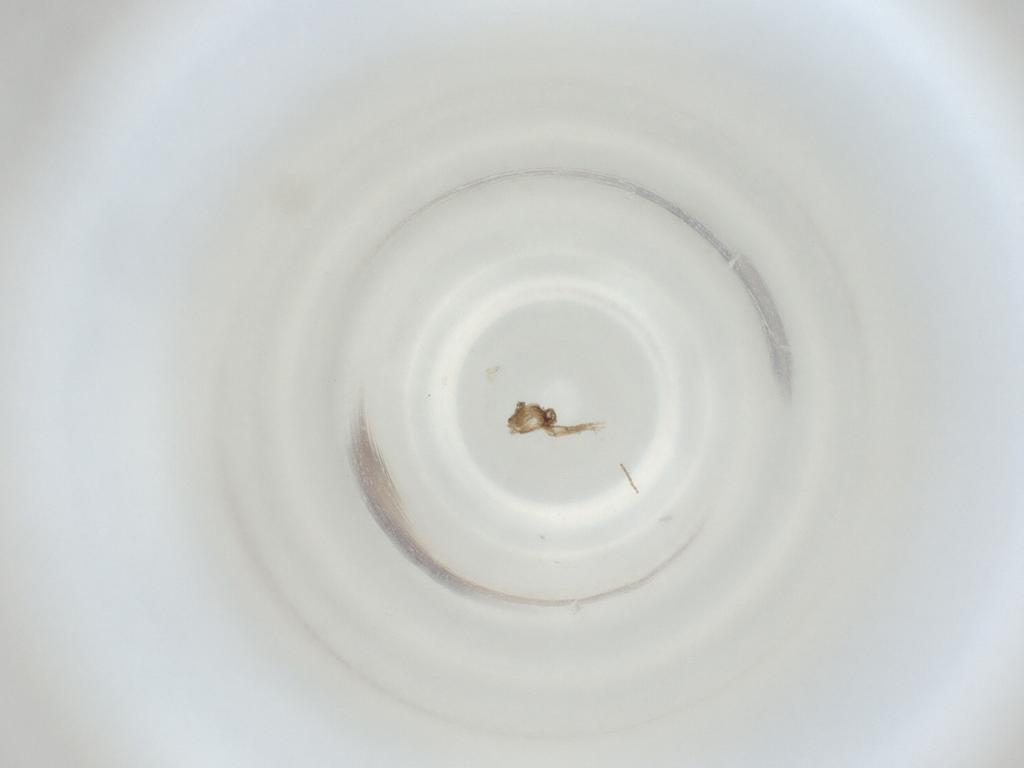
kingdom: Animalia
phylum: Arthropoda
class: Insecta
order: Diptera
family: Cecidomyiidae
